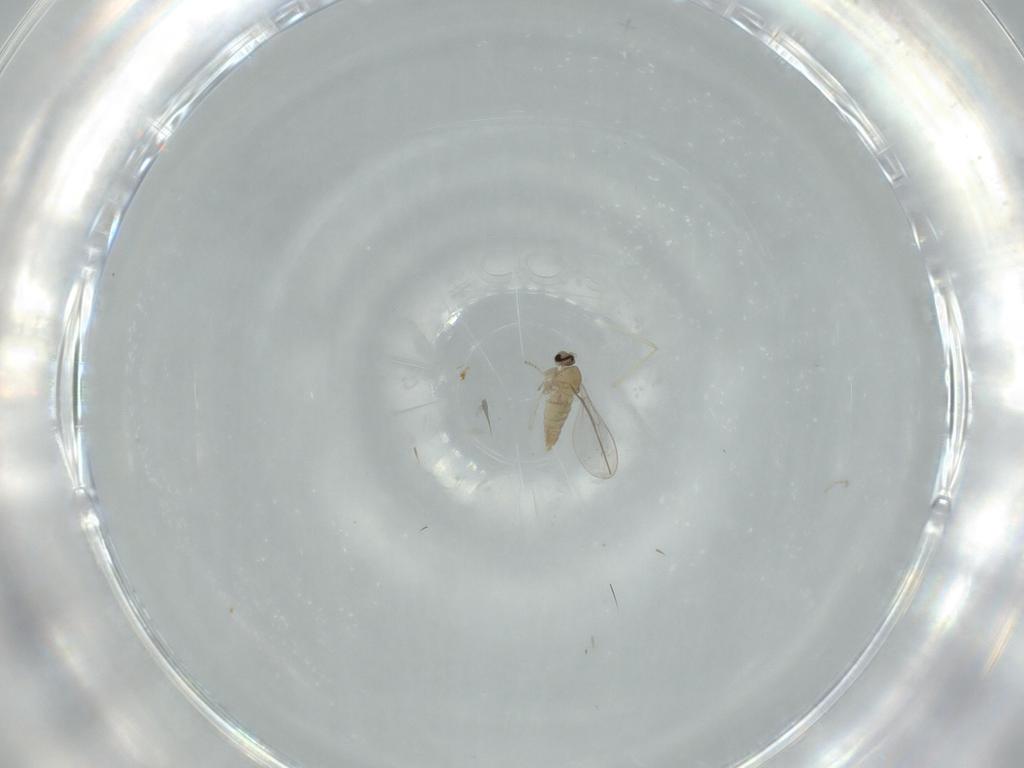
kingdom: Animalia
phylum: Arthropoda
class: Insecta
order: Diptera
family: Cecidomyiidae
